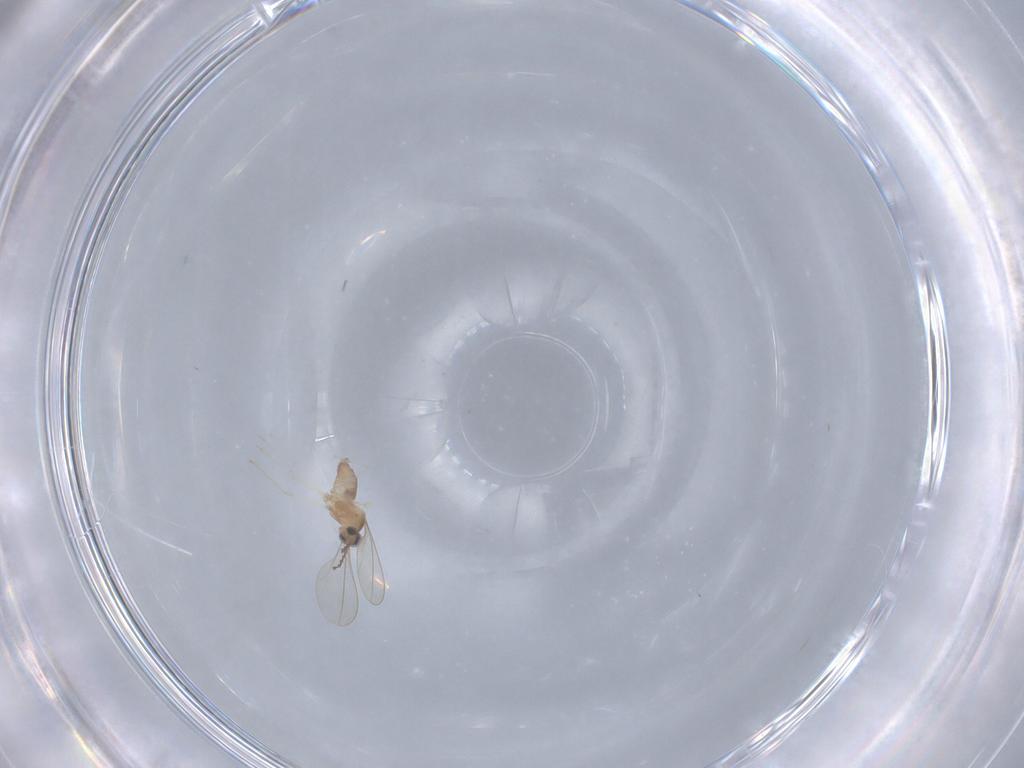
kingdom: Animalia
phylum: Arthropoda
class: Insecta
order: Diptera
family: Cecidomyiidae
